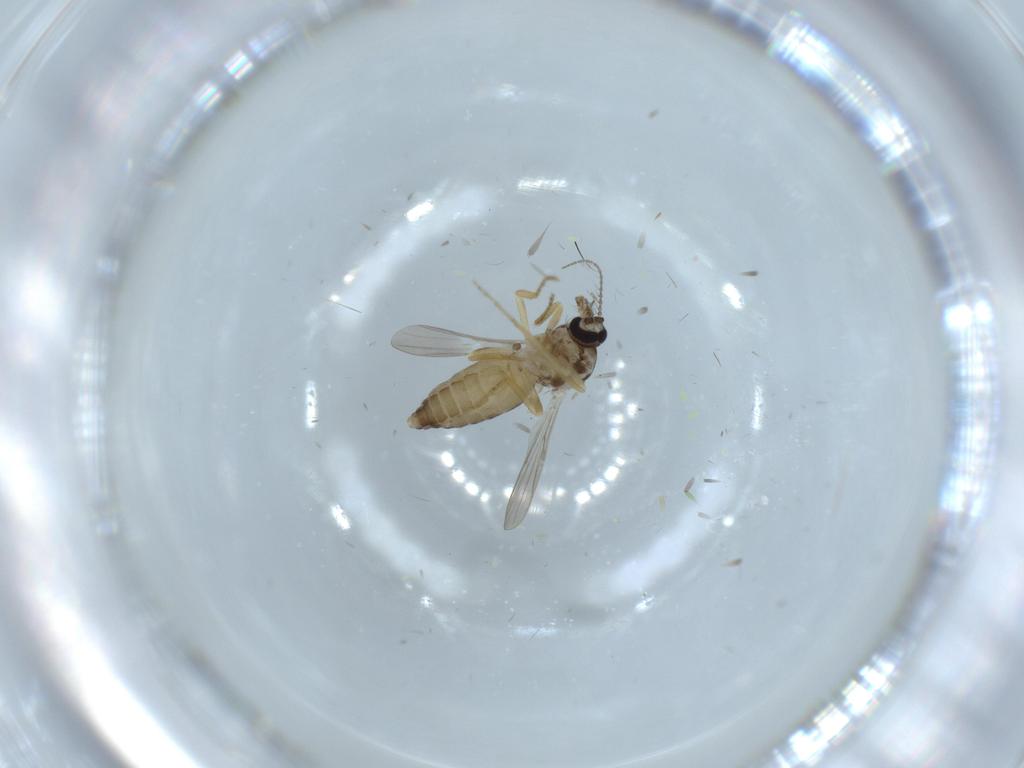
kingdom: Animalia
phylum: Arthropoda
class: Insecta
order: Diptera
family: Ceratopogonidae
